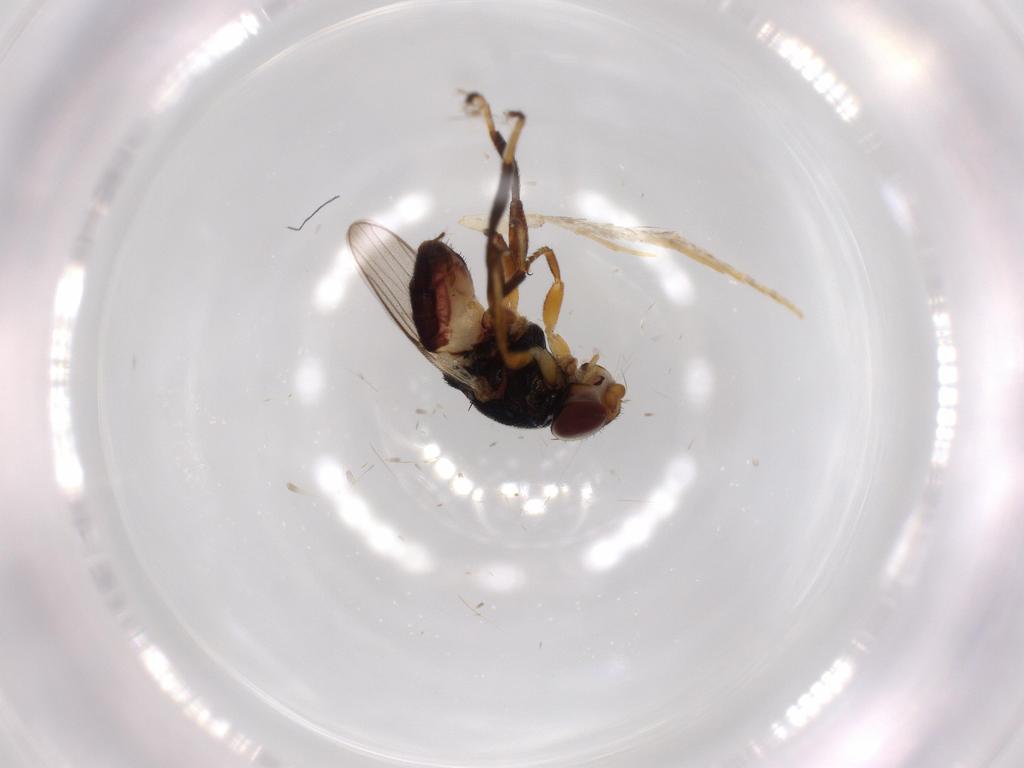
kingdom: Animalia
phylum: Arthropoda
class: Insecta
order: Diptera
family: Chloropidae
